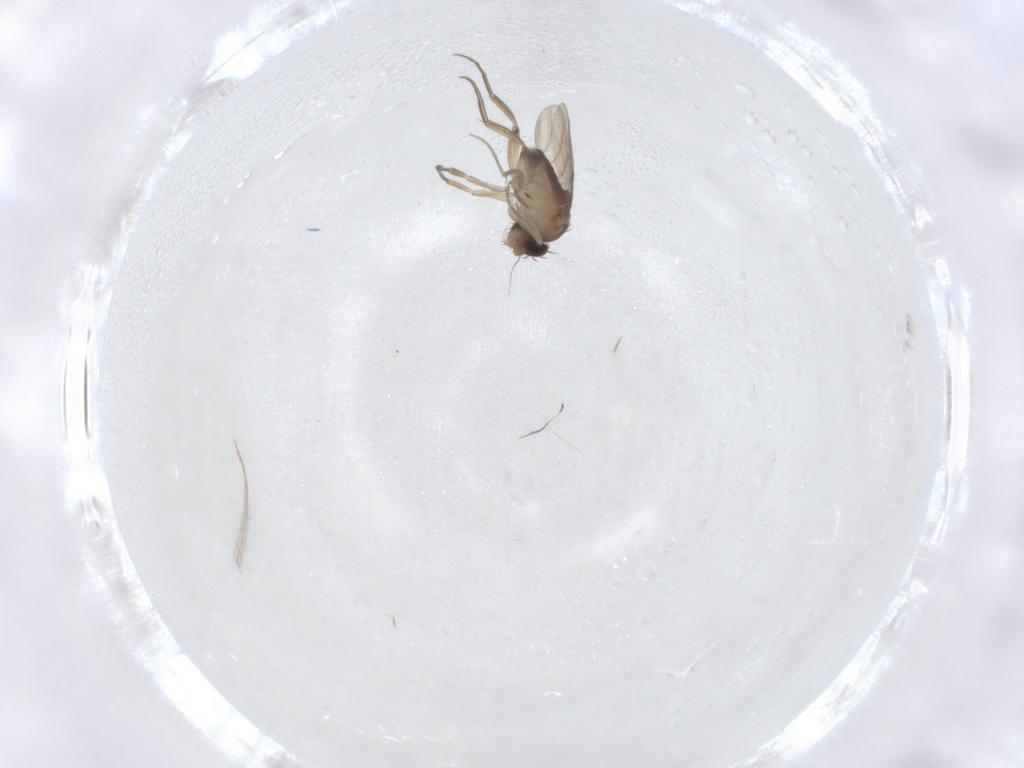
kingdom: Animalia
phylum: Arthropoda
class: Insecta
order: Diptera
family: Phoridae
